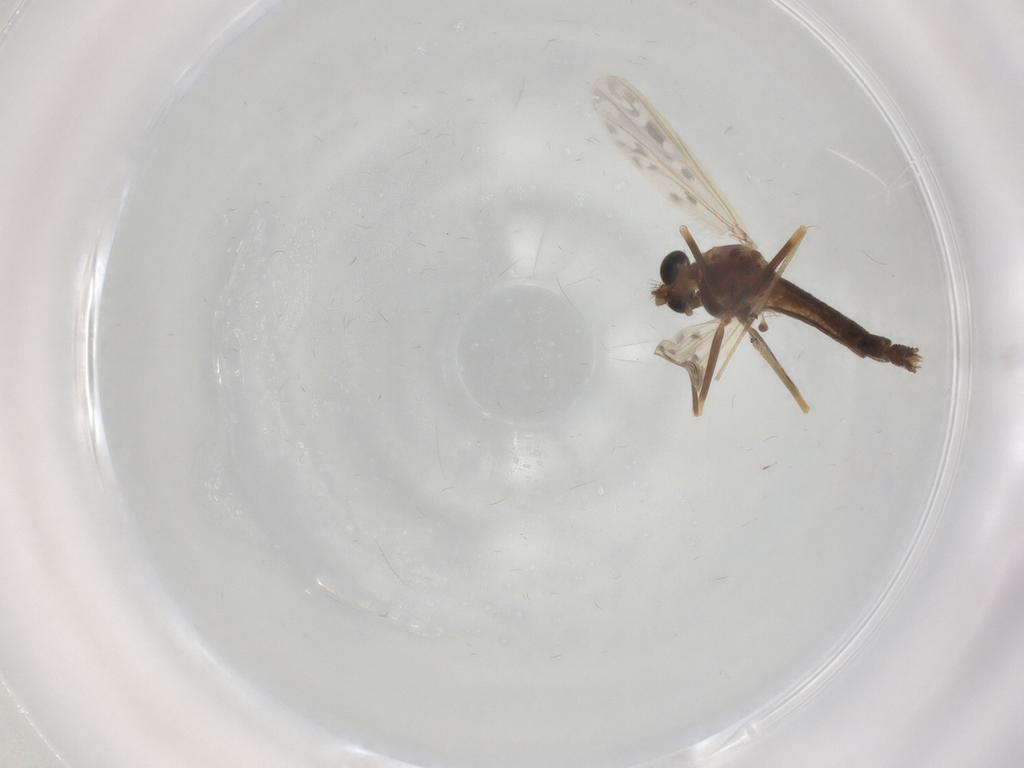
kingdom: Animalia
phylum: Arthropoda
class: Insecta
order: Diptera
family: Chironomidae
